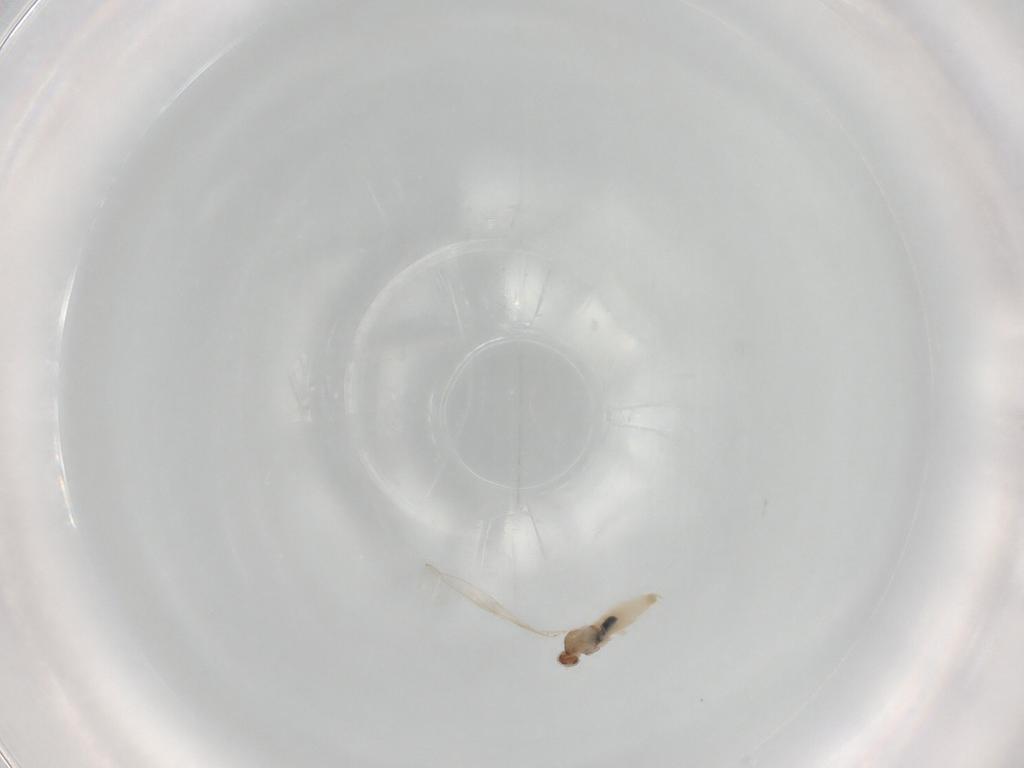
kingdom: Animalia
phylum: Arthropoda
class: Insecta
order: Diptera
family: Cecidomyiidae
